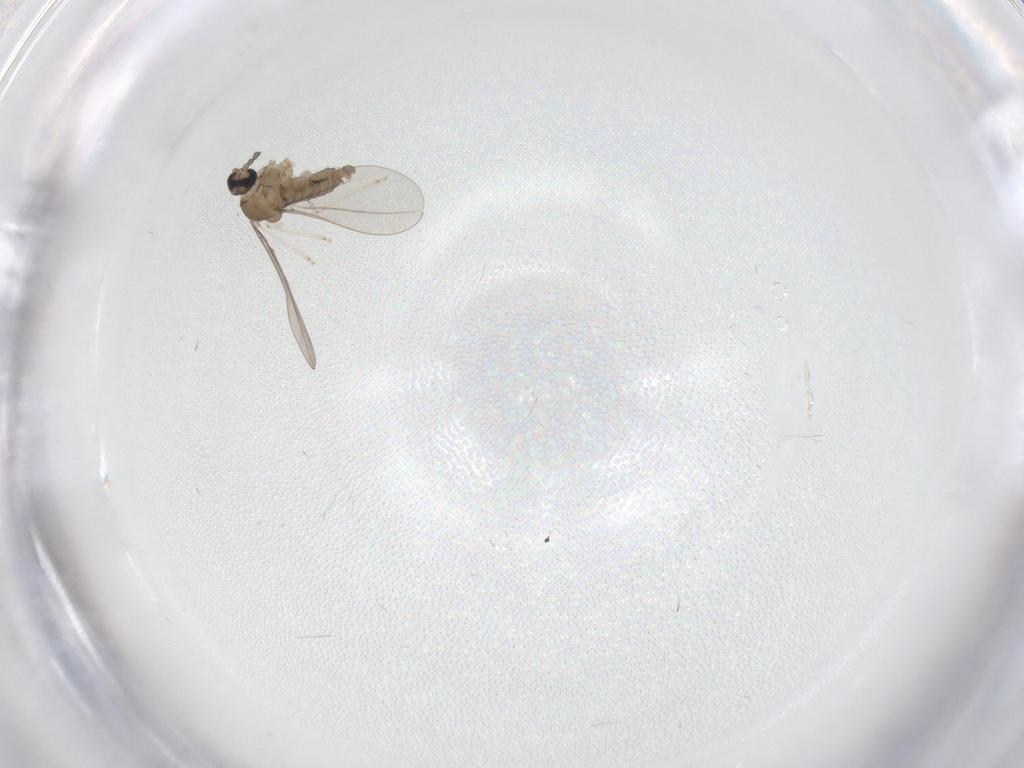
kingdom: Animalia
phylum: Arthropoda
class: Insecta
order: Diptera
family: Cecidomyiidae
